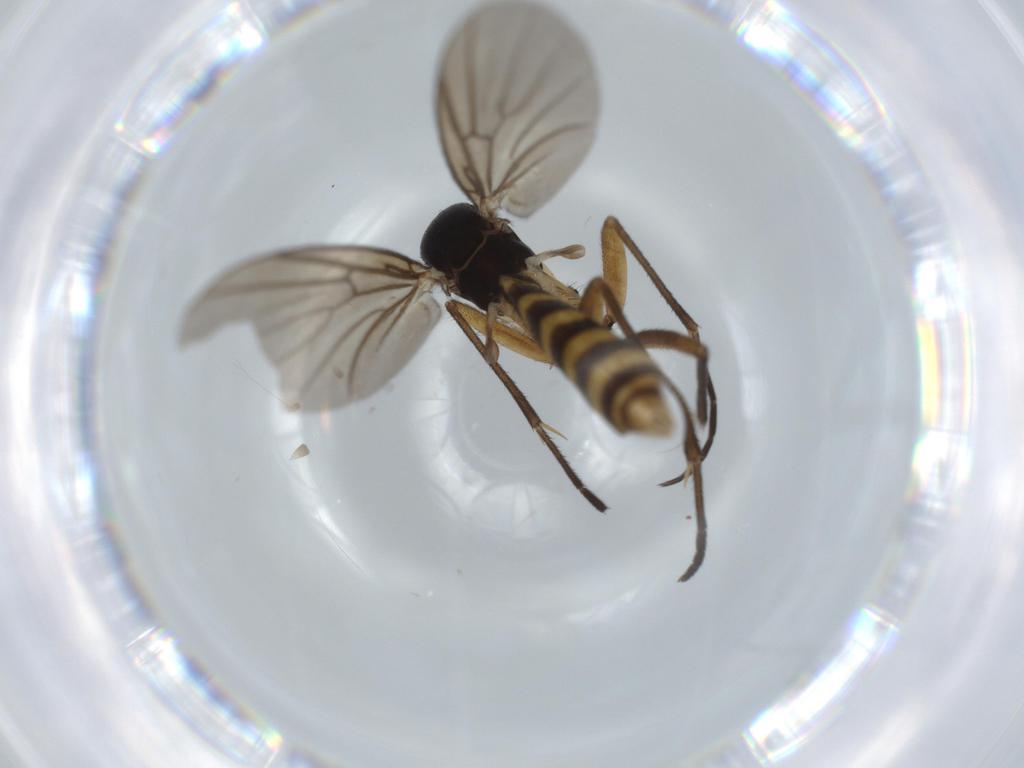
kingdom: Animalia
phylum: Arthropoda
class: Insecta
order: Diptera
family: Mycetophilidae
